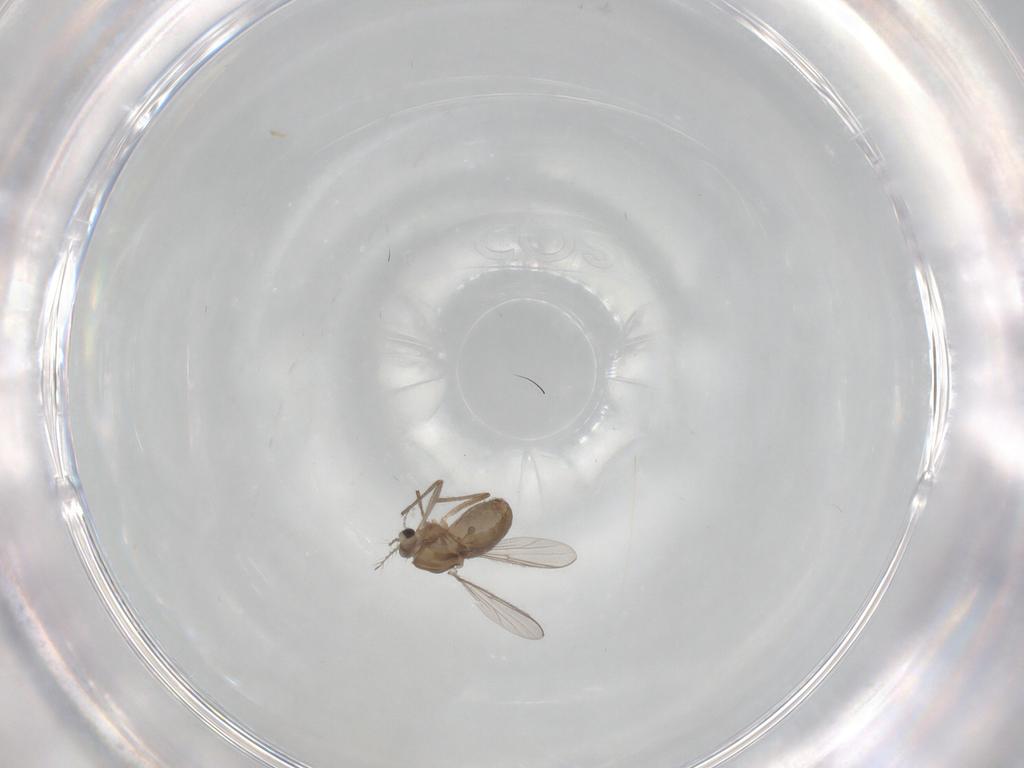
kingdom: Animalia
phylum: Arthropoda
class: Insecta
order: Diptera
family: Chironomidae
